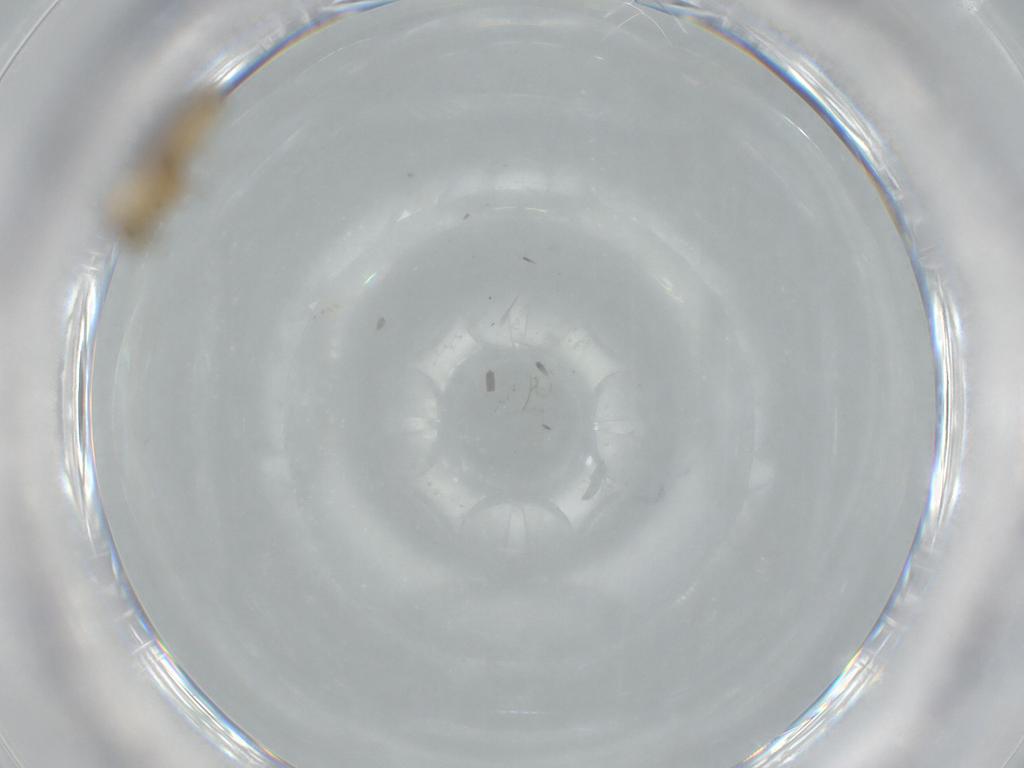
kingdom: Animalia
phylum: Arthropoda
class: Insecta
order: Diptera
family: Chironomidae
